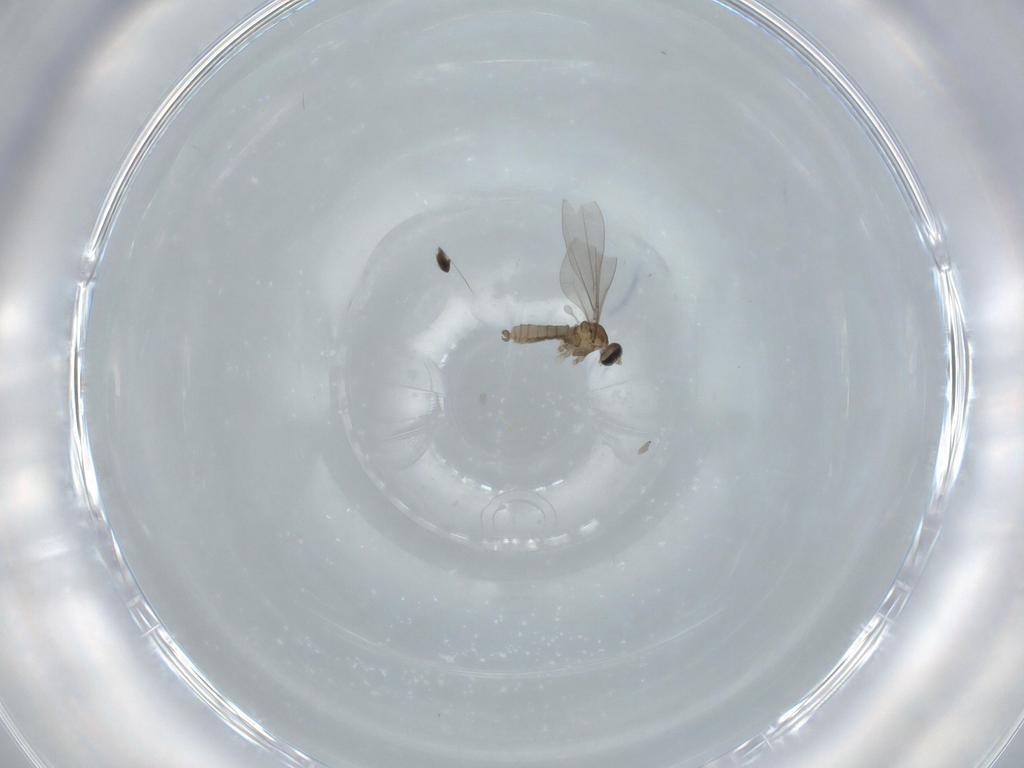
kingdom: Animalia
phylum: Arthropoda
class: Insecta
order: Diptera
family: Cecidomyiidae
